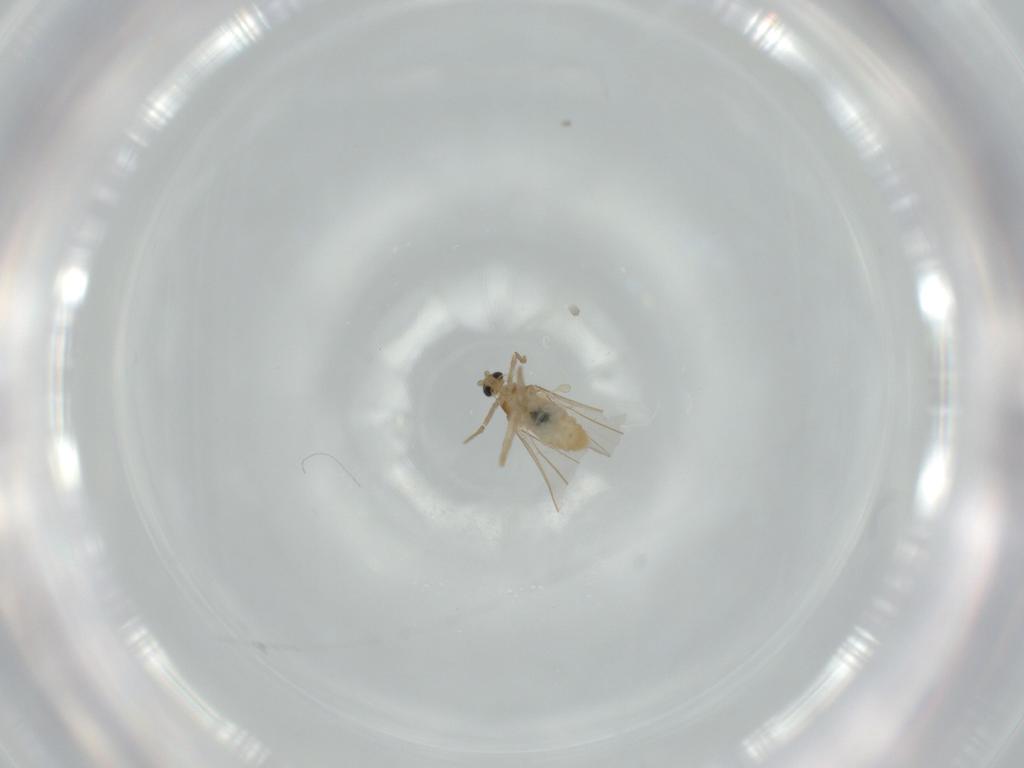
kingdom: Animalia
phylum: Arthropoda
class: Insecta
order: Diptera
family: Cecidomyiidae
